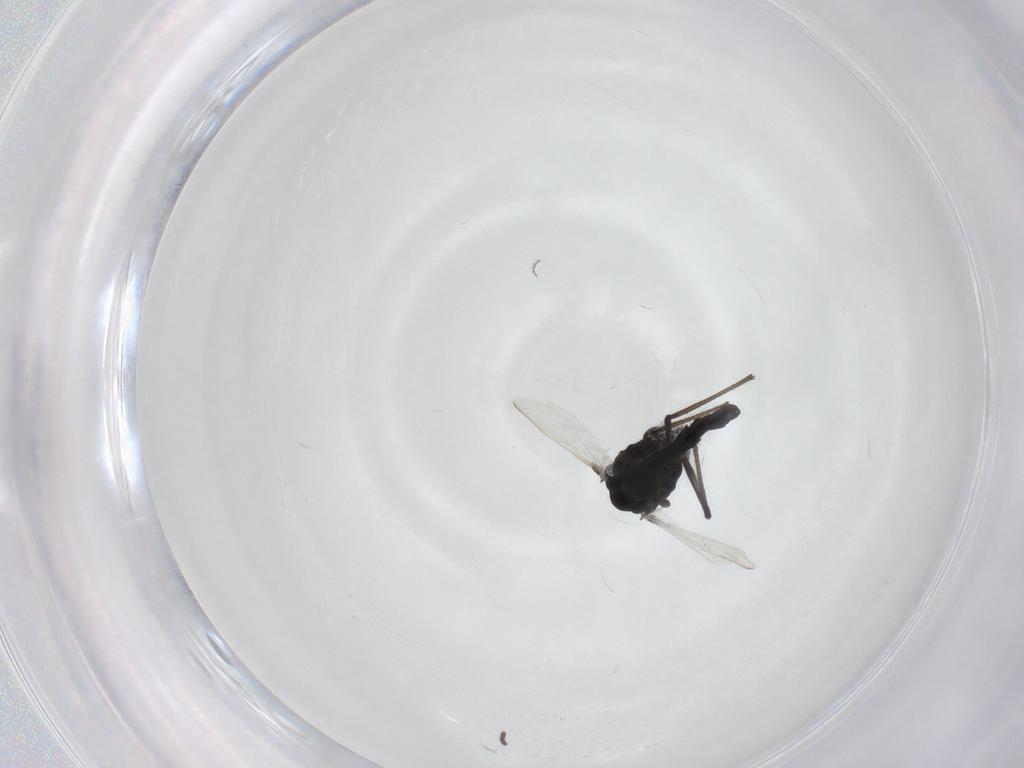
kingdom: Animalia
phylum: Arthropoda
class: Insecta
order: Diptera
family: Chironomidae
